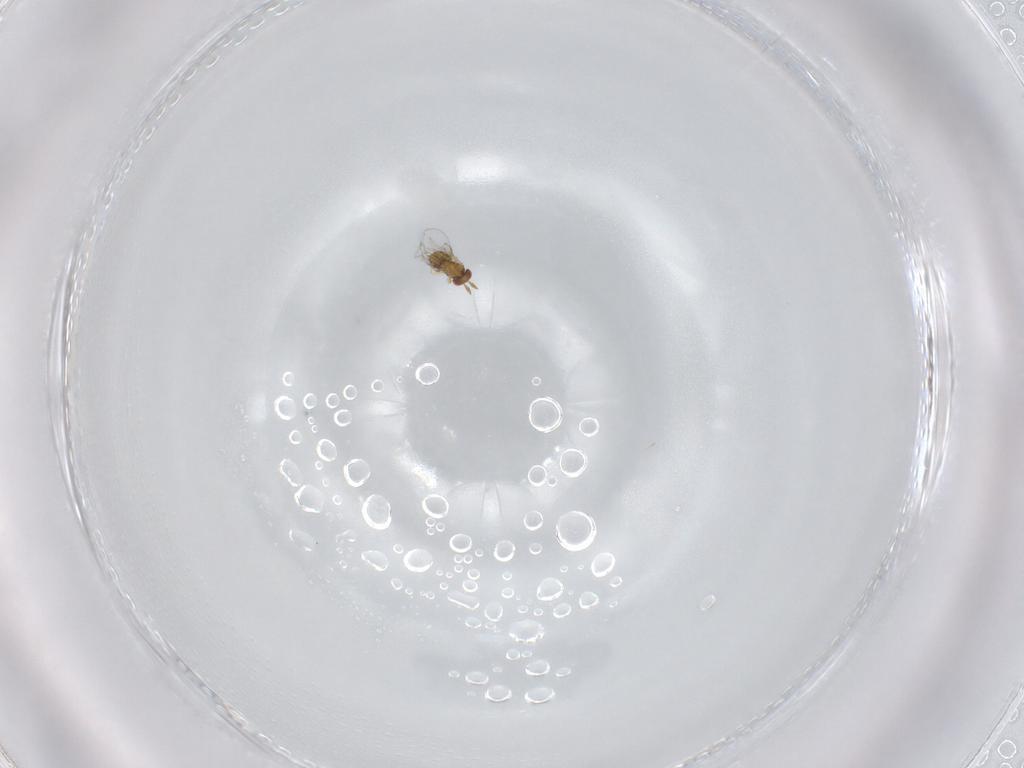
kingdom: Animalia
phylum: Arthropoda
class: Insecta
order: Hymenoptera
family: Trichogrammatidae
